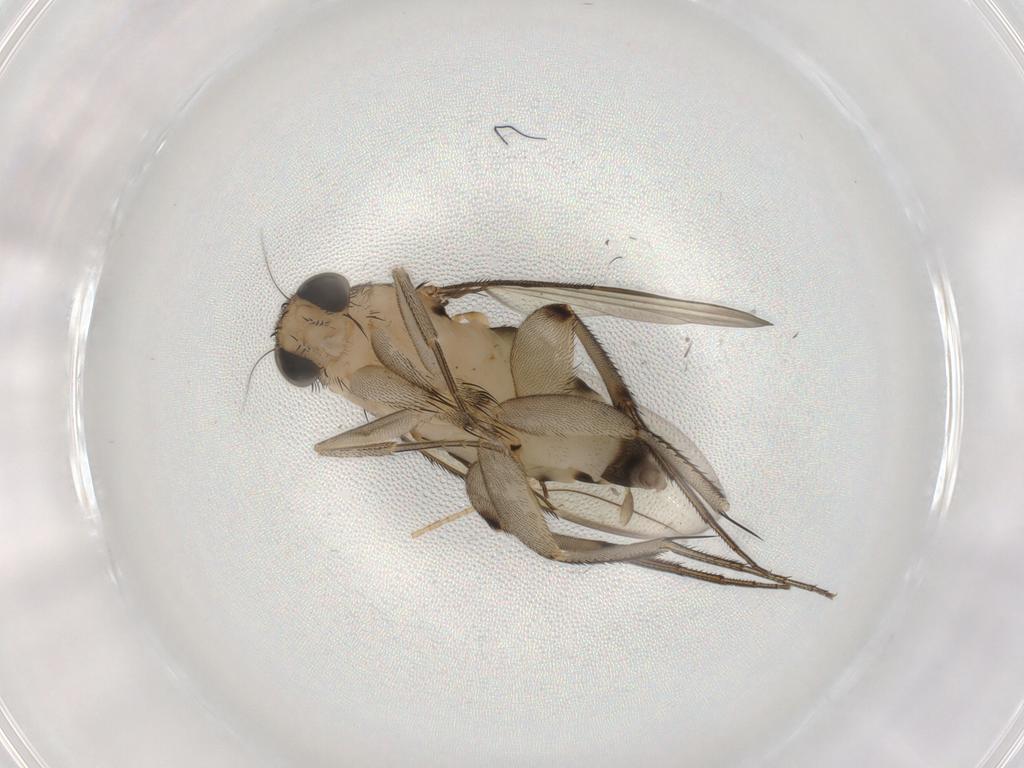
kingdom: Animalia
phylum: Arthropoda
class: Insecta
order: Diptera
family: Phoridae
